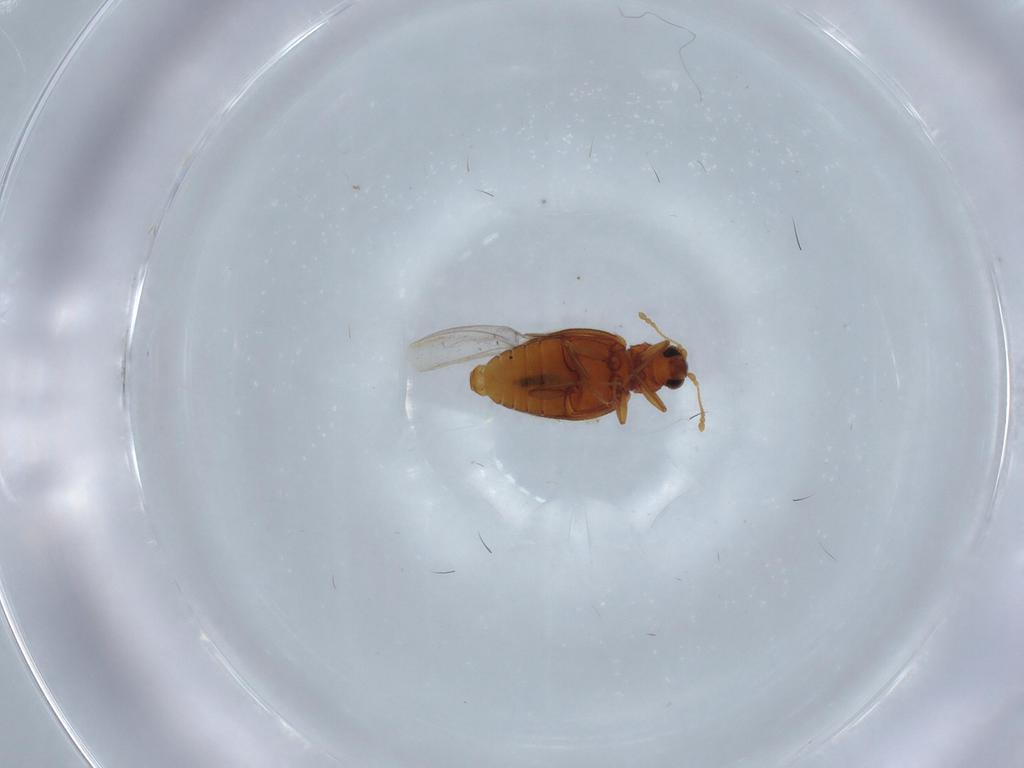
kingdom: Animalia
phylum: Arthropoda
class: Insecta
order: Coleoptera
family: Latridiidae
